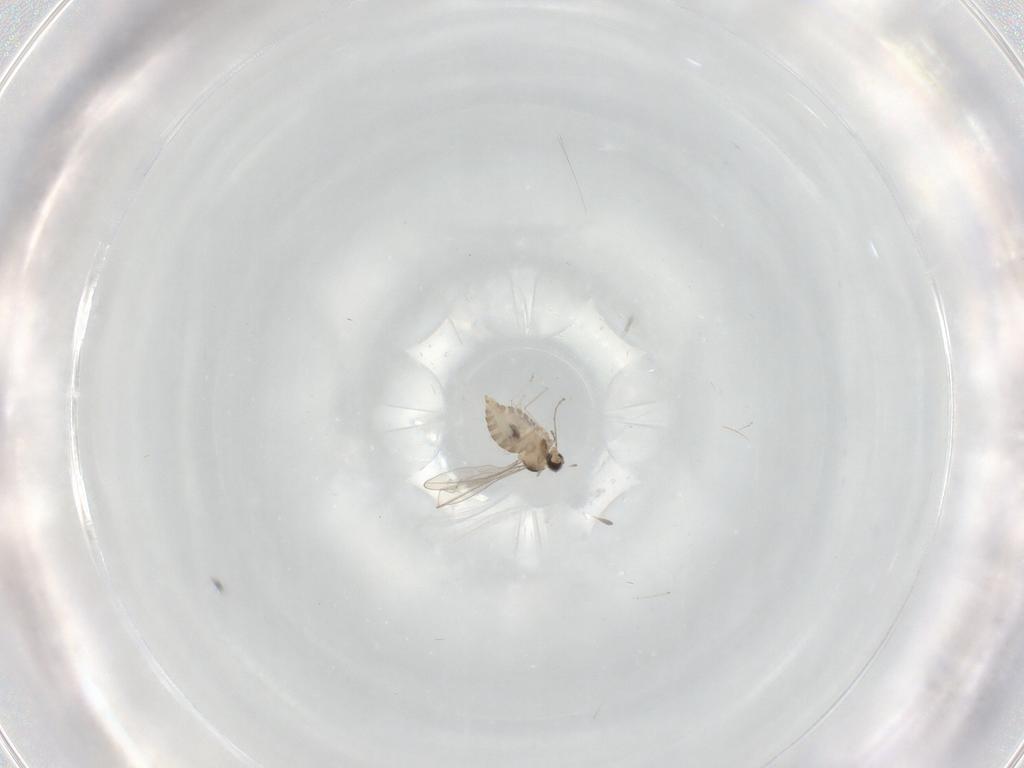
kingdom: Animalia
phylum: Arthropoda
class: Insecta
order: Diptera
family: Cecidomyiidae
